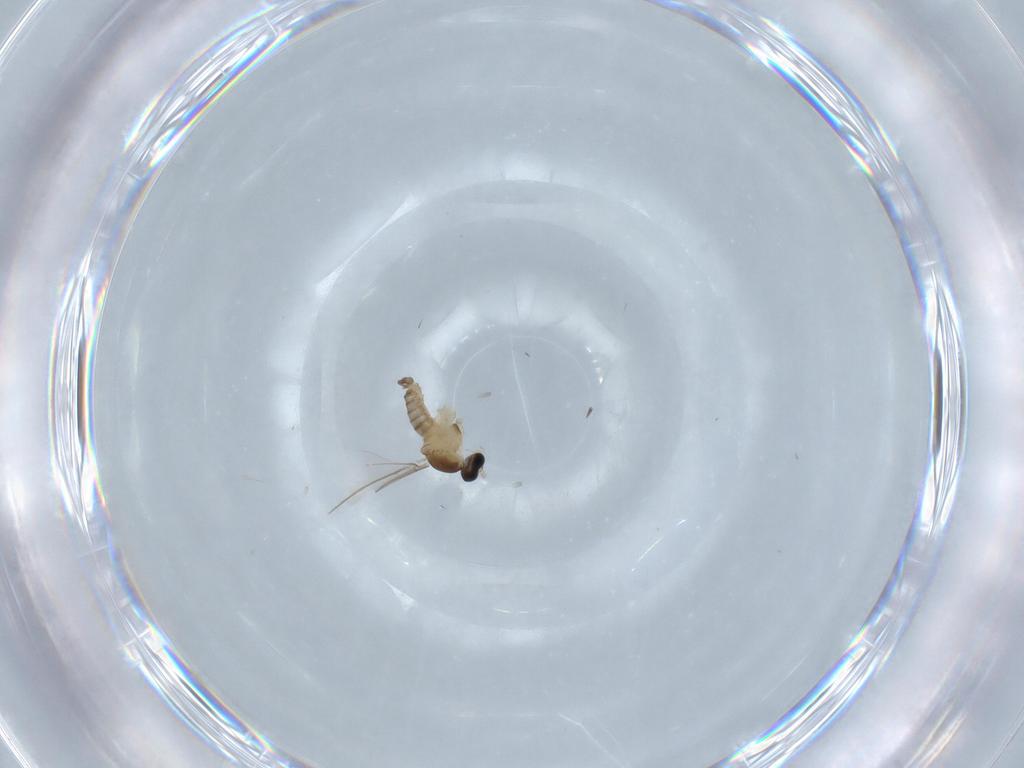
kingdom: Animalia
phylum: Arthropoda
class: Insecta
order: Diptera
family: Cecidomyiidae
